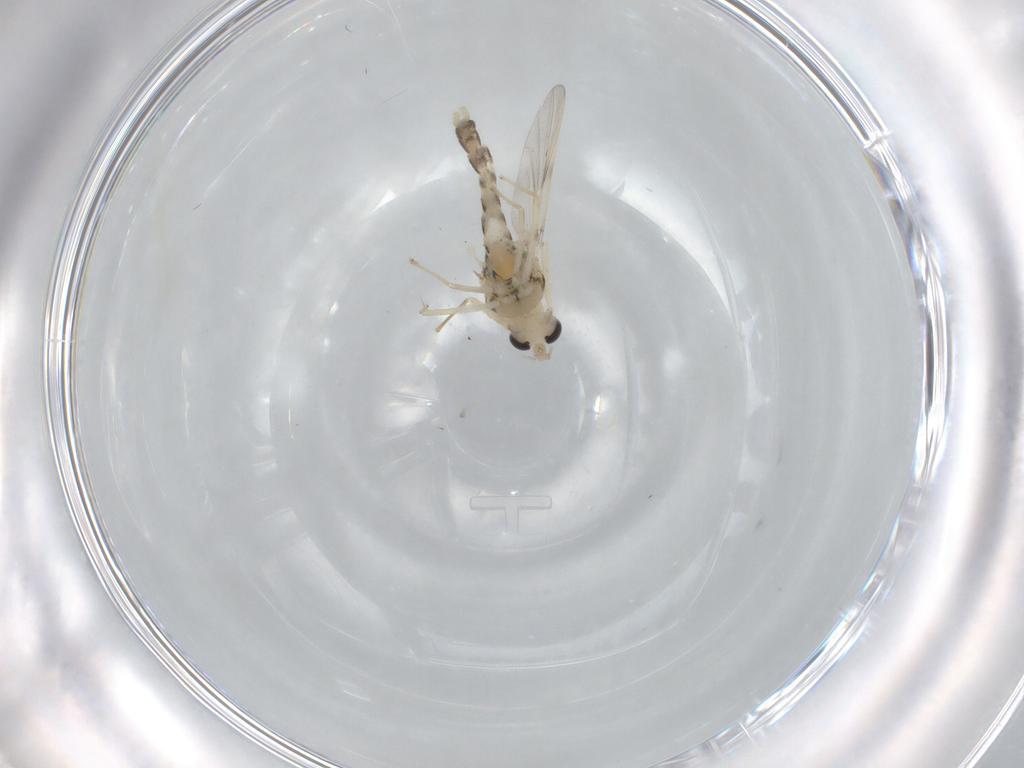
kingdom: Animalia
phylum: Arthropoda
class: Insecta
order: Diptera
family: Chironomidae
